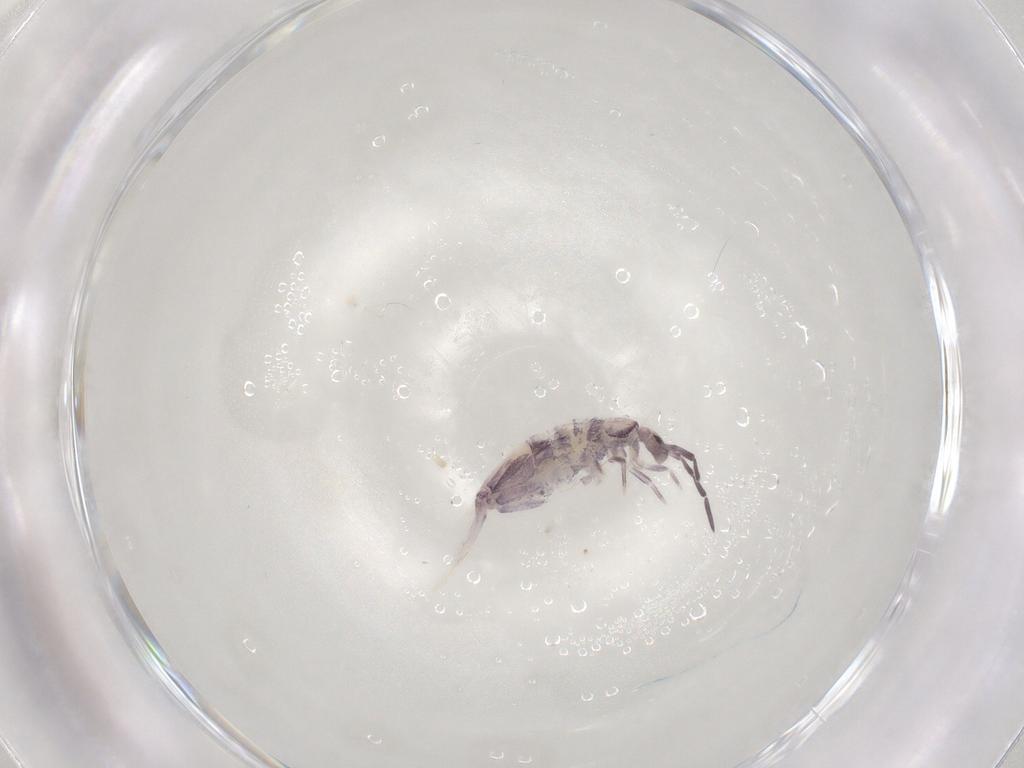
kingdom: Animalia
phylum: Arthropoda
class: Collembola
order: Entomobryomorpha
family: Entomobryidae
